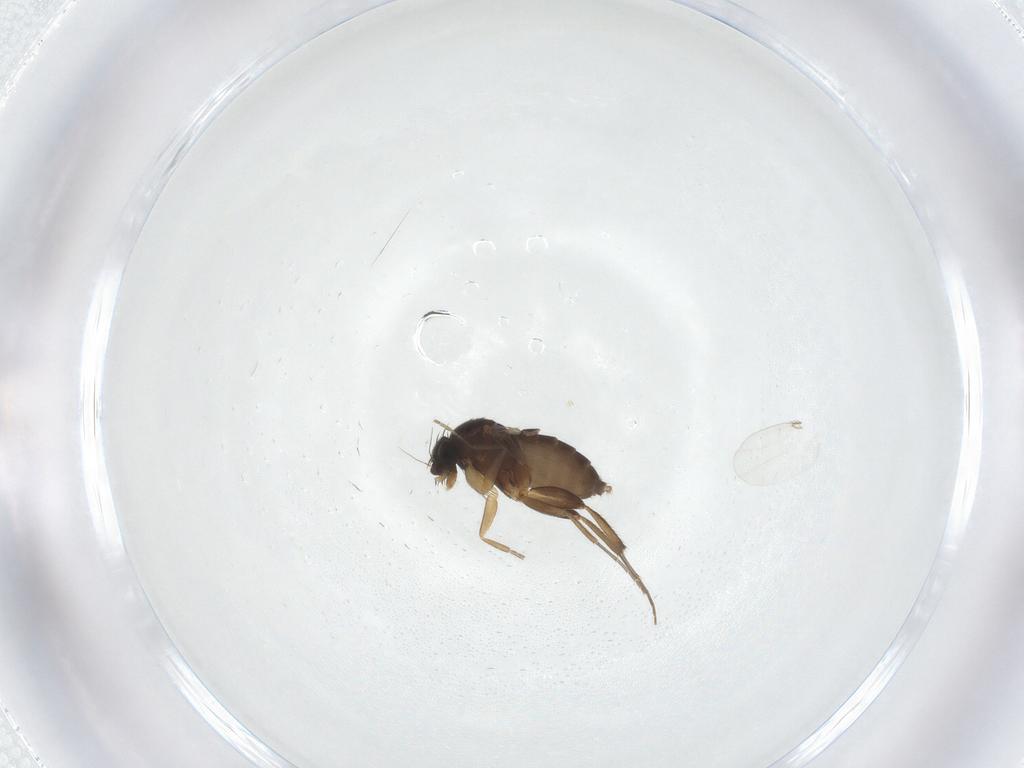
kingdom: Animalia
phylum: Arthropoda
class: Insecta
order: Diptera
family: Phoridae
